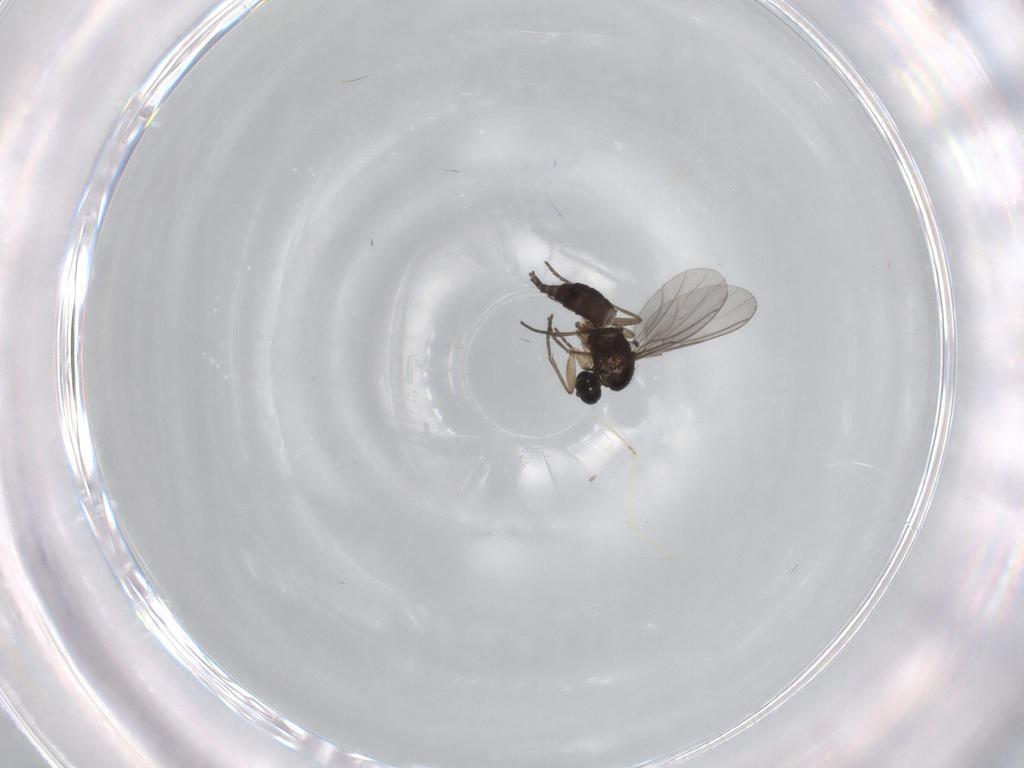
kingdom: Animalia
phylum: Arthropoda
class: Insecta
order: Diptera
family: Sciaridae
